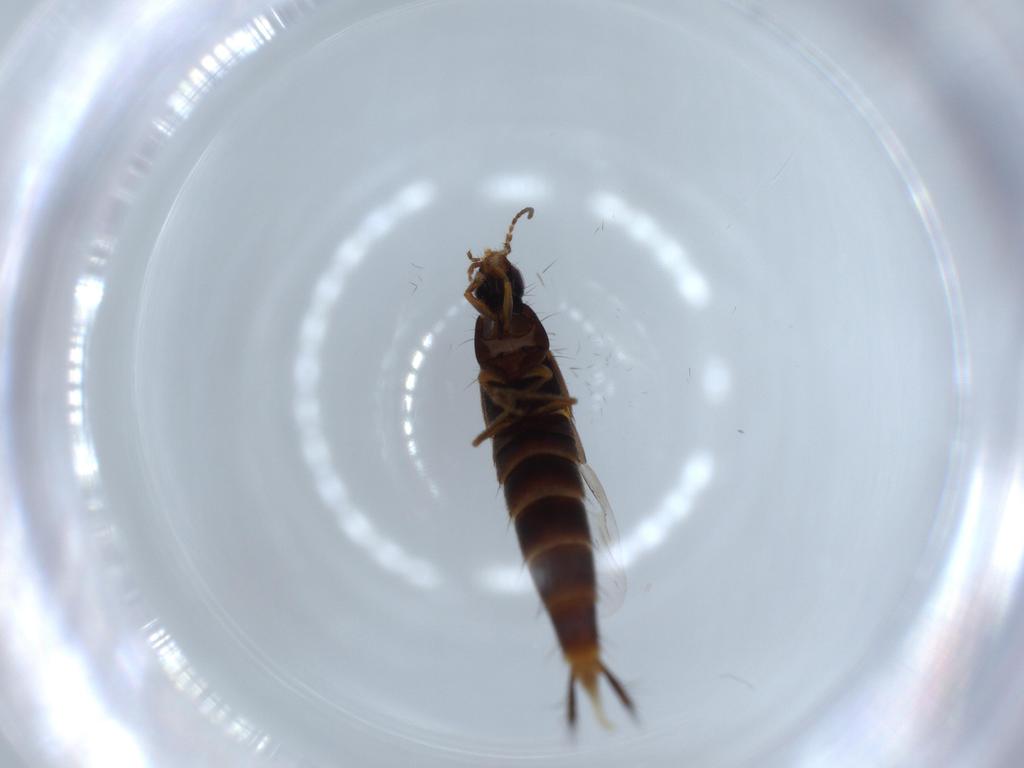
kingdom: Animalia
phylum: Arthropoda
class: Insecta
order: Coleoptera
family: Staphylinidae
